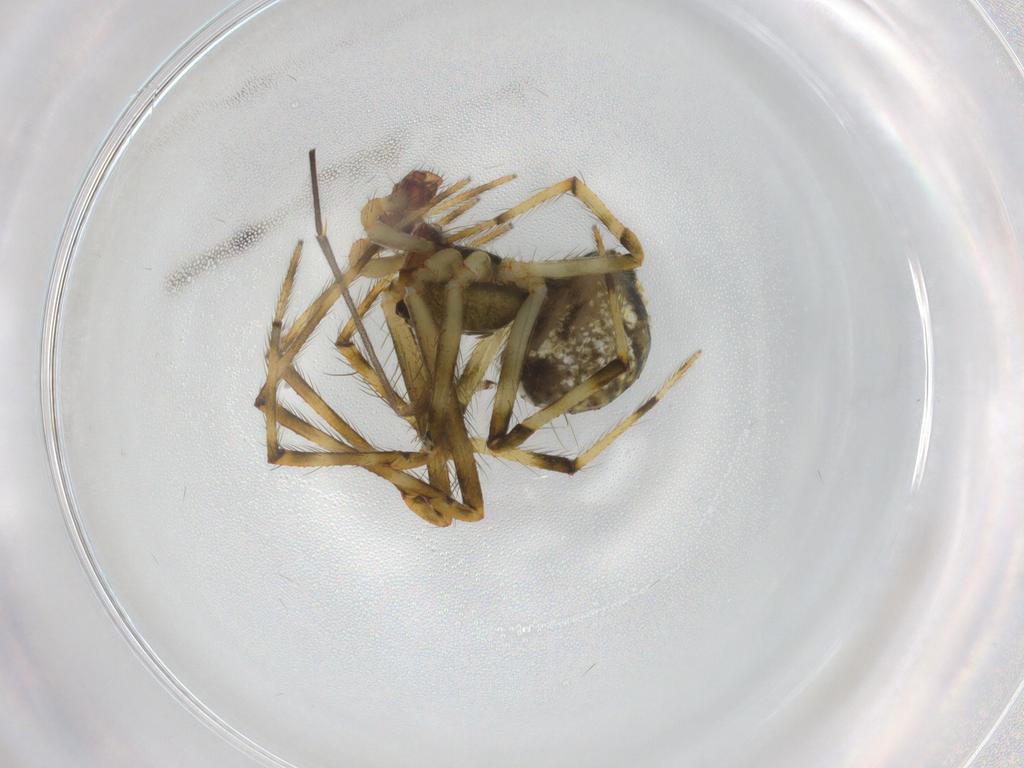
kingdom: Animalia
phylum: Arthropoda
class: Arachnida
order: Araneae
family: Theridiidae
